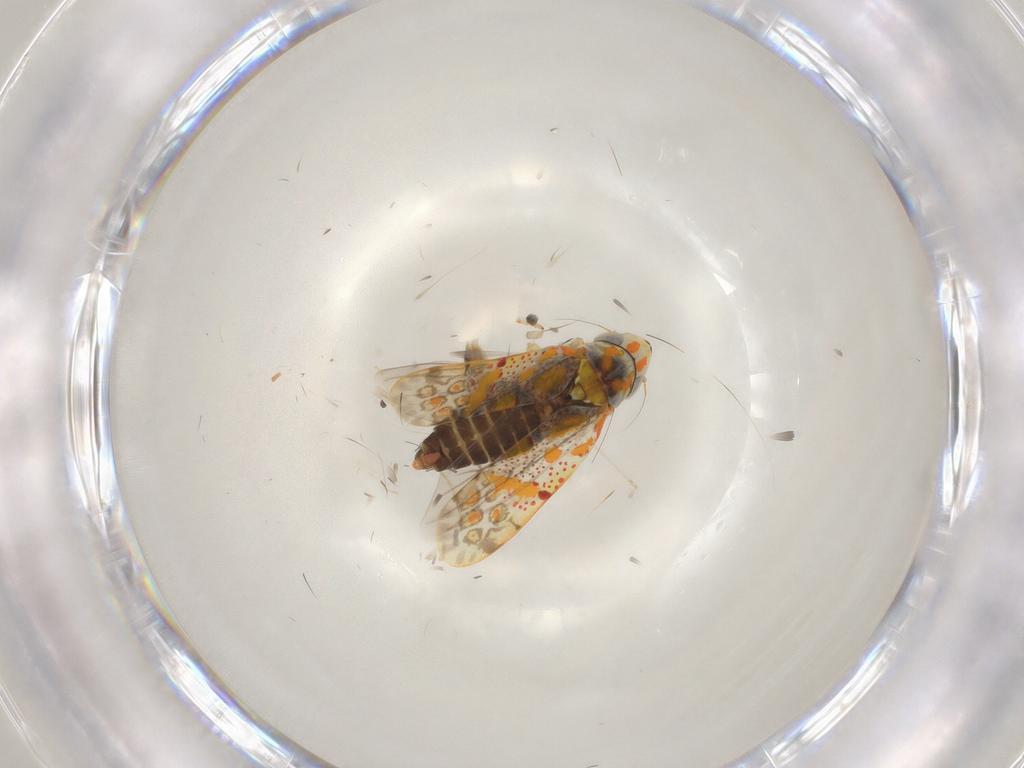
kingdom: Animalia
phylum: Arthropoda
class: Insecta
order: Hemiptera
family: Cicadellidae
